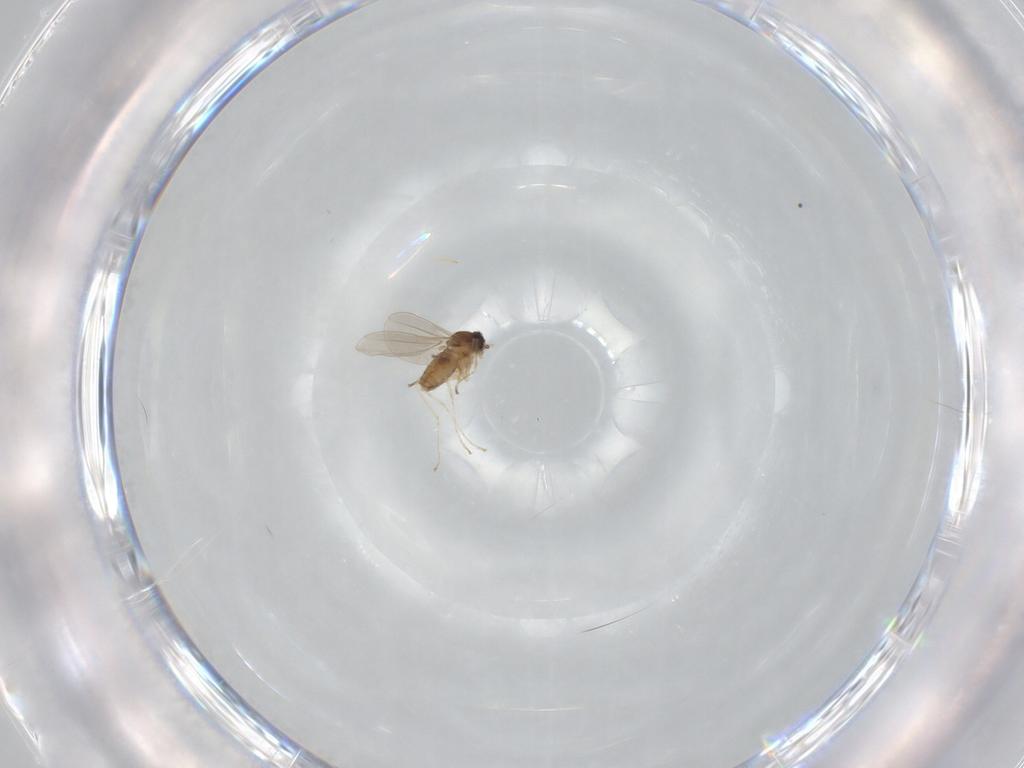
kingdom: Animalia
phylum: Arthropoda
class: Insecta
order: Diptera
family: Cecidomyiidae
